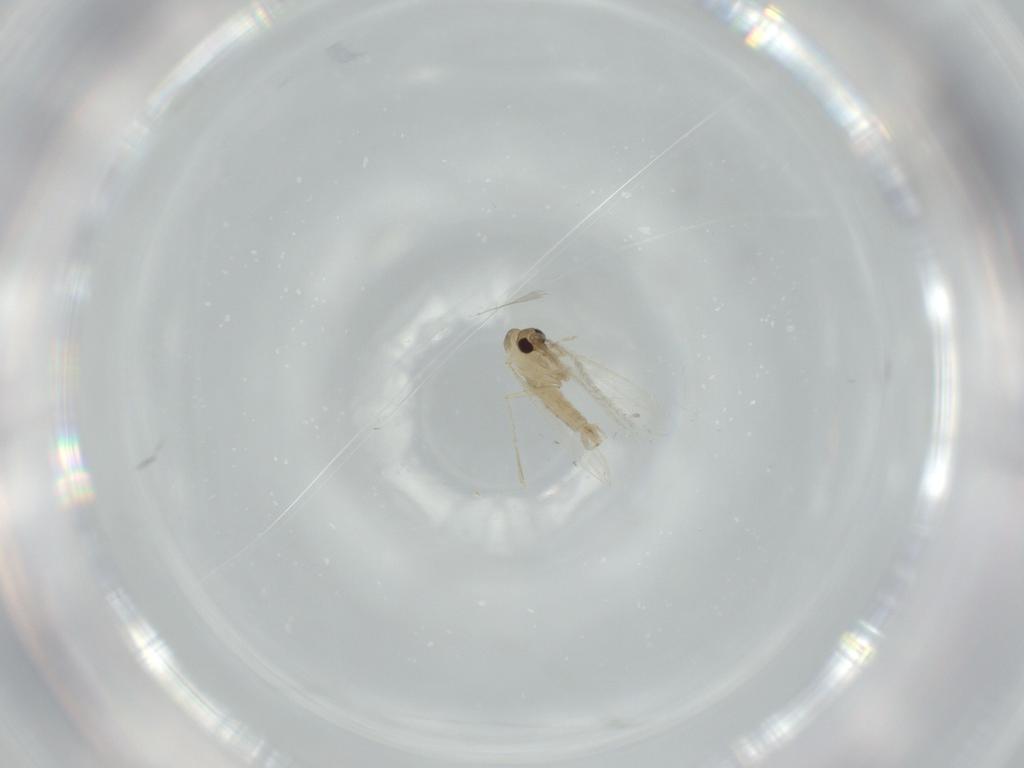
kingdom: Animalia
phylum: Arthropoda
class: Insecta
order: Diptera
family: Psychodidae
